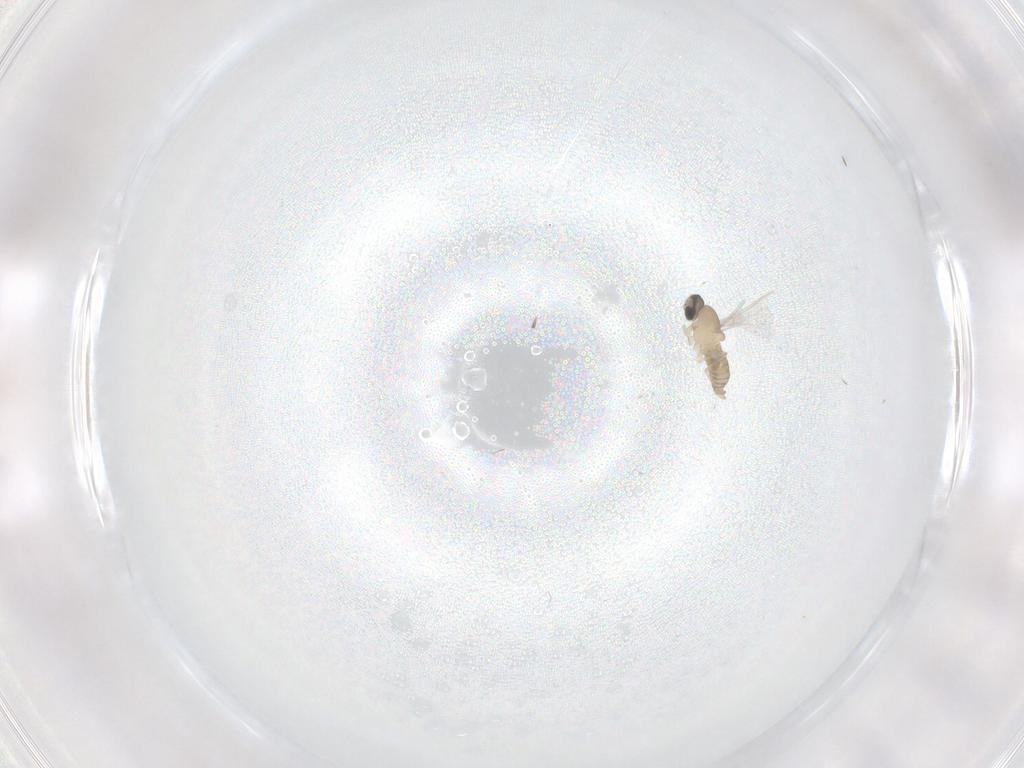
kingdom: Animalia
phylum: Arthropoda
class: Insecta
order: Diptera
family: Cecidomyiidae
